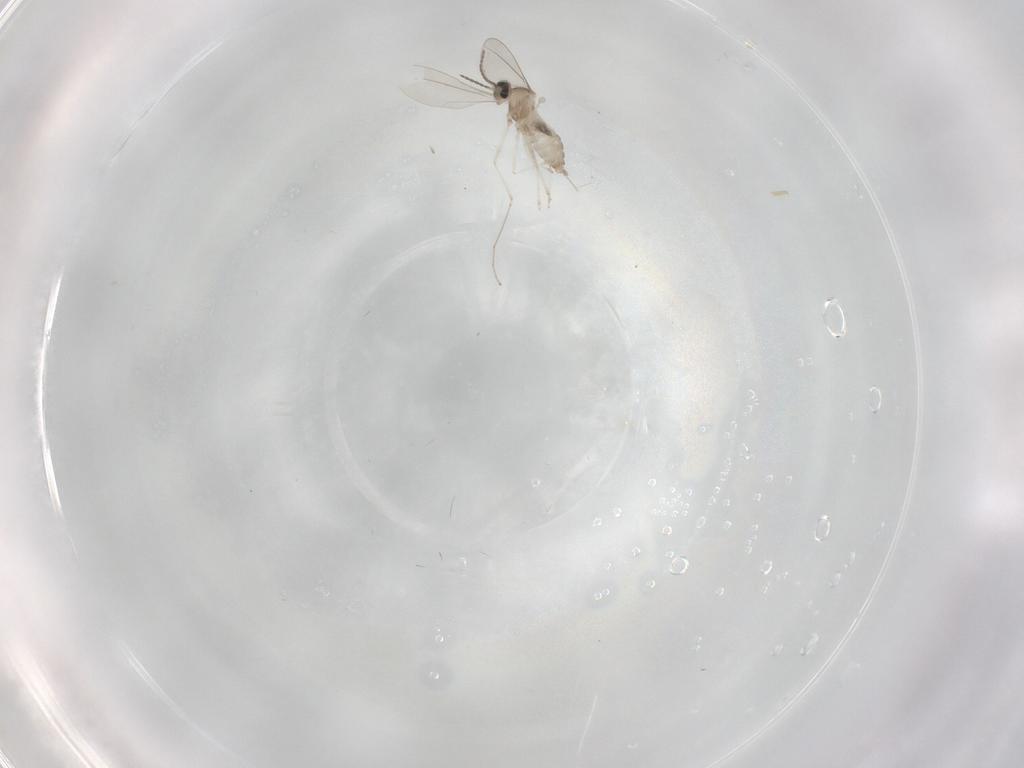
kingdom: Animalia
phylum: Arthropoda
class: Insecta
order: Diptera
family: Cecidomyiidae
